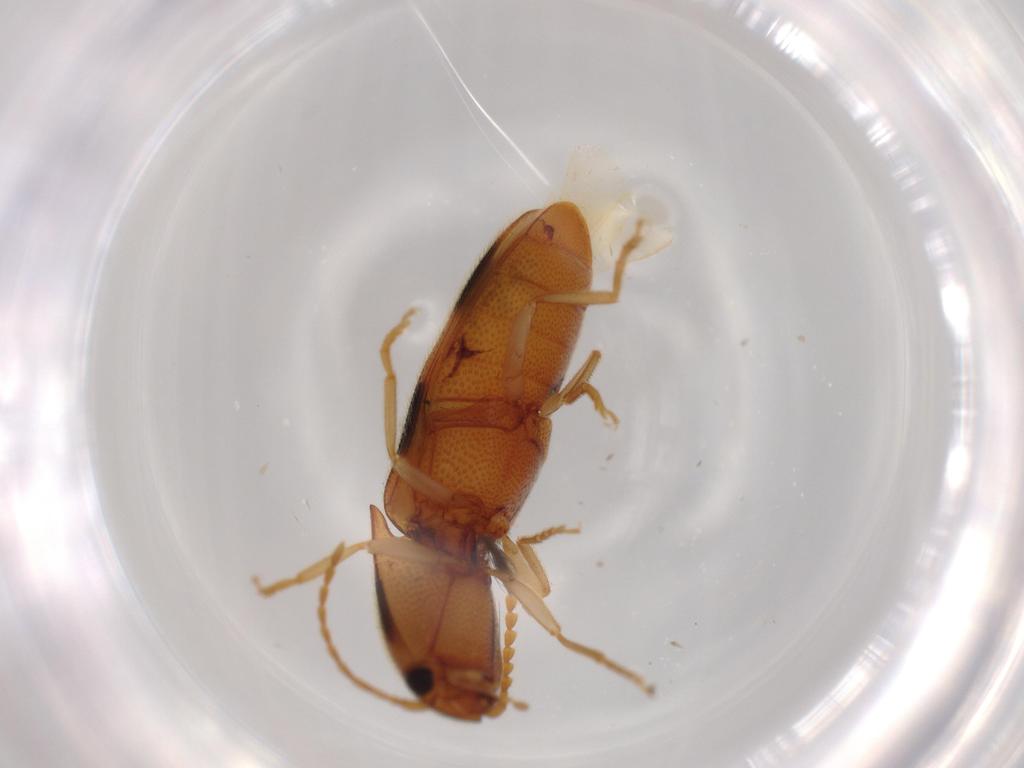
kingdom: Animalia
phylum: Arthropoda
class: Insecta
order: Coleoptera
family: Elateridae
